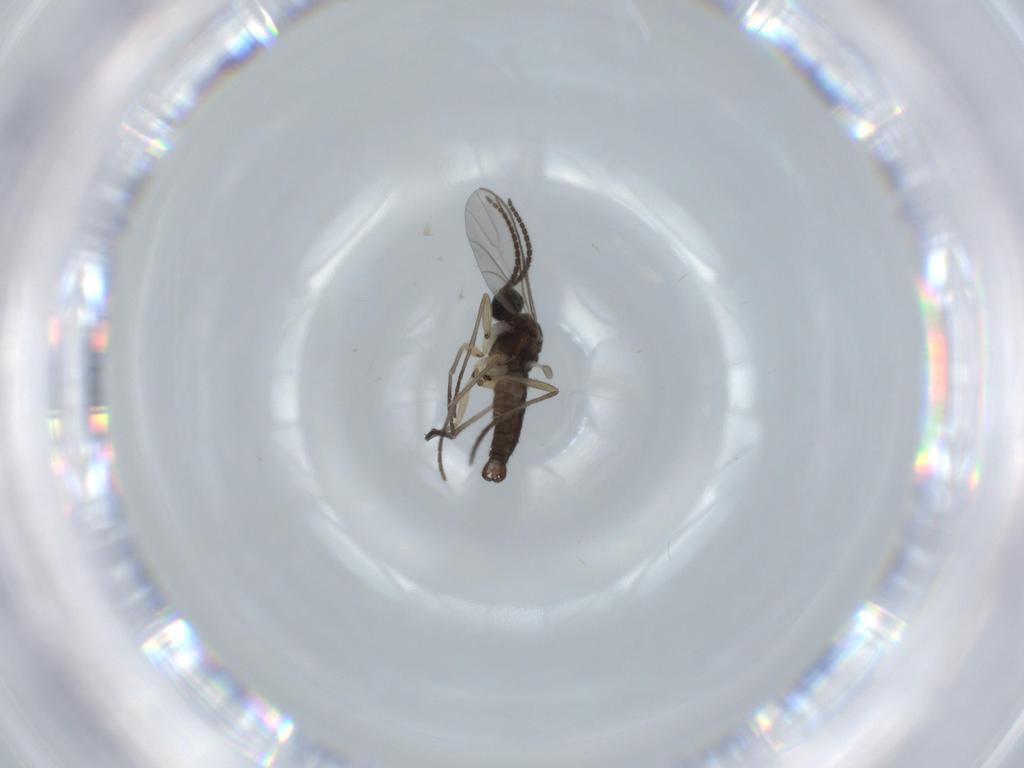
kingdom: Animalia
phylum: Arthropoda
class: Insecta
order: Diptera
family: Sciaridae
